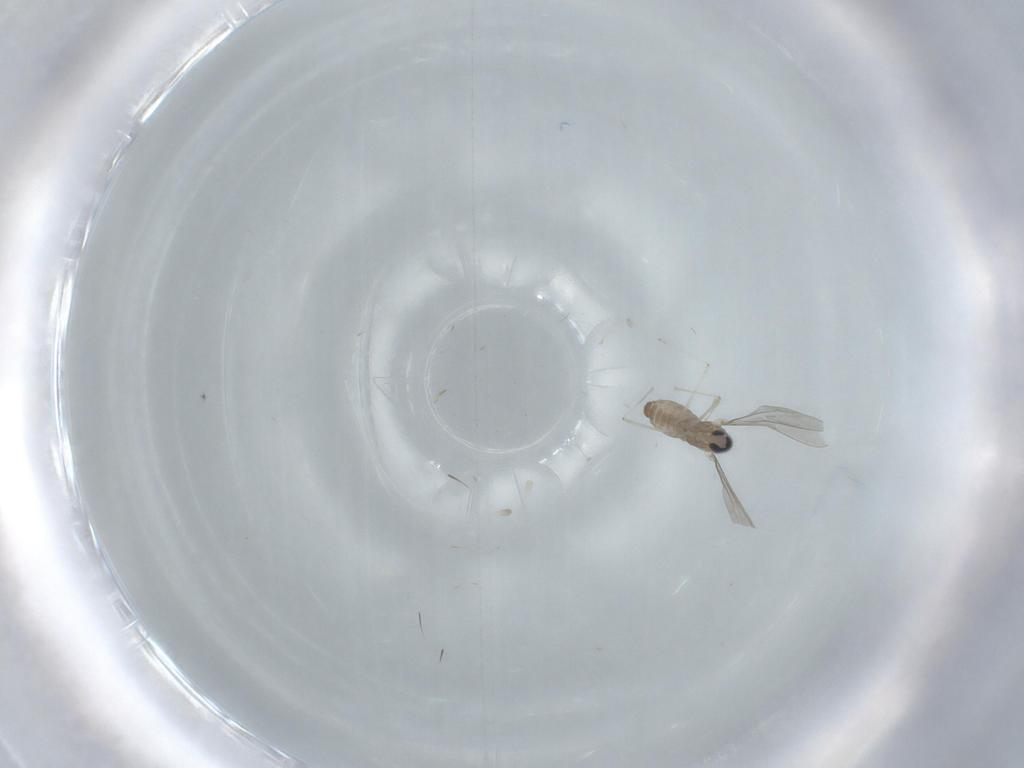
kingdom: Animalia
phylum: Arthropoda
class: Insecta
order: Diptera
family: Cecidomyiidae
